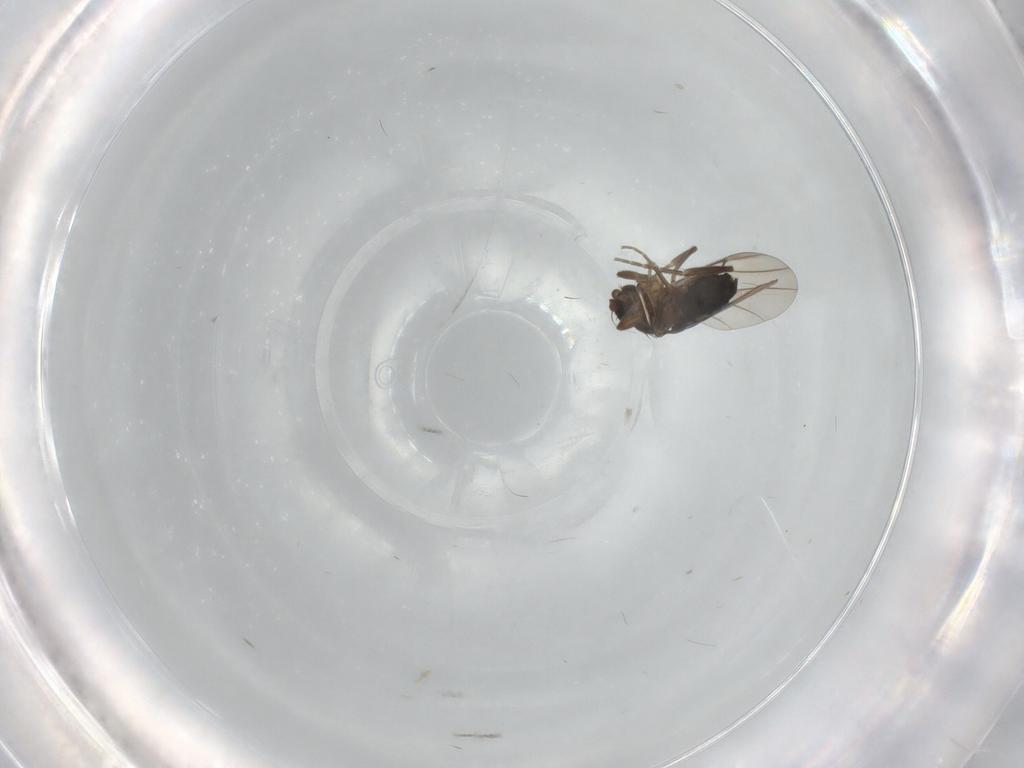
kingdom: Animalia
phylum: Arthropoda
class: Insecta
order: Diptera
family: Phoridae
